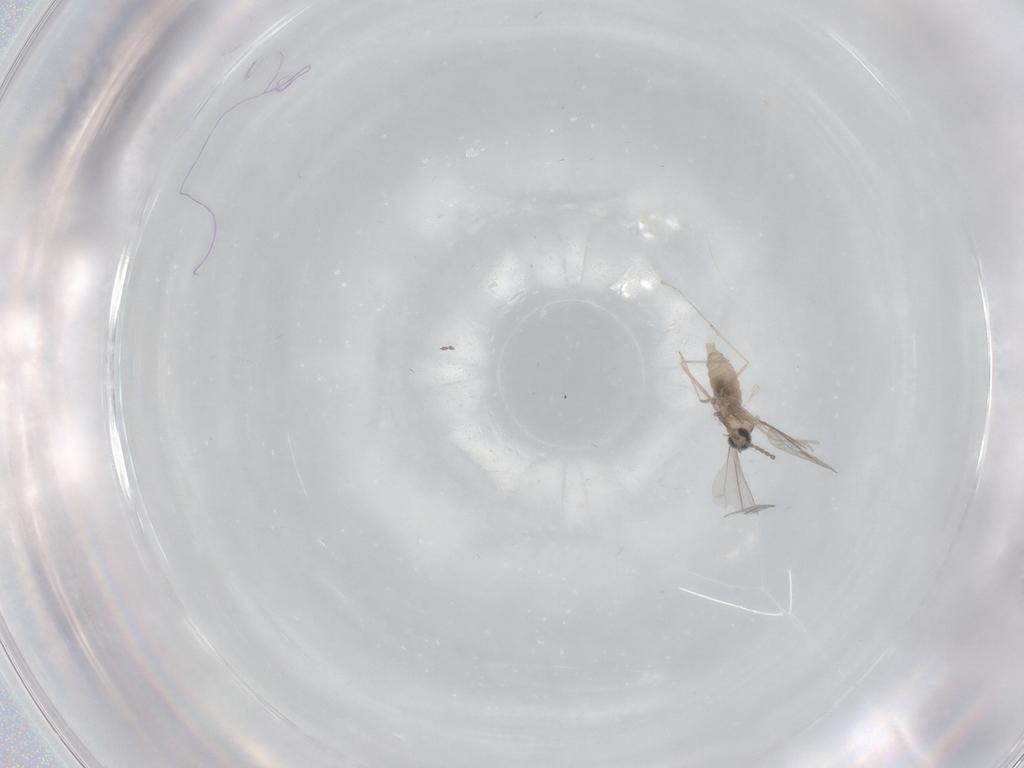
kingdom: Animalia
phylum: Arthropoda
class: Insecta
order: Diptera
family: Cecidomyiidae
